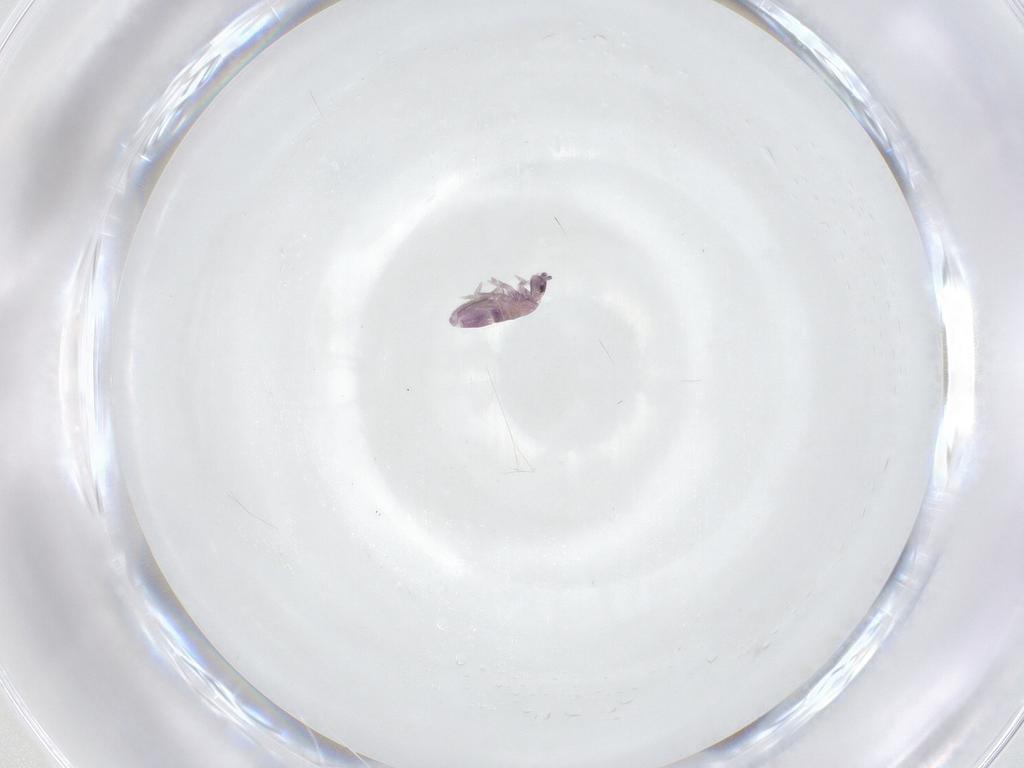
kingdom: Animalia
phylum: Arthropoda
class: Collembola
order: Entomobryomorpha
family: Entomobryidae
